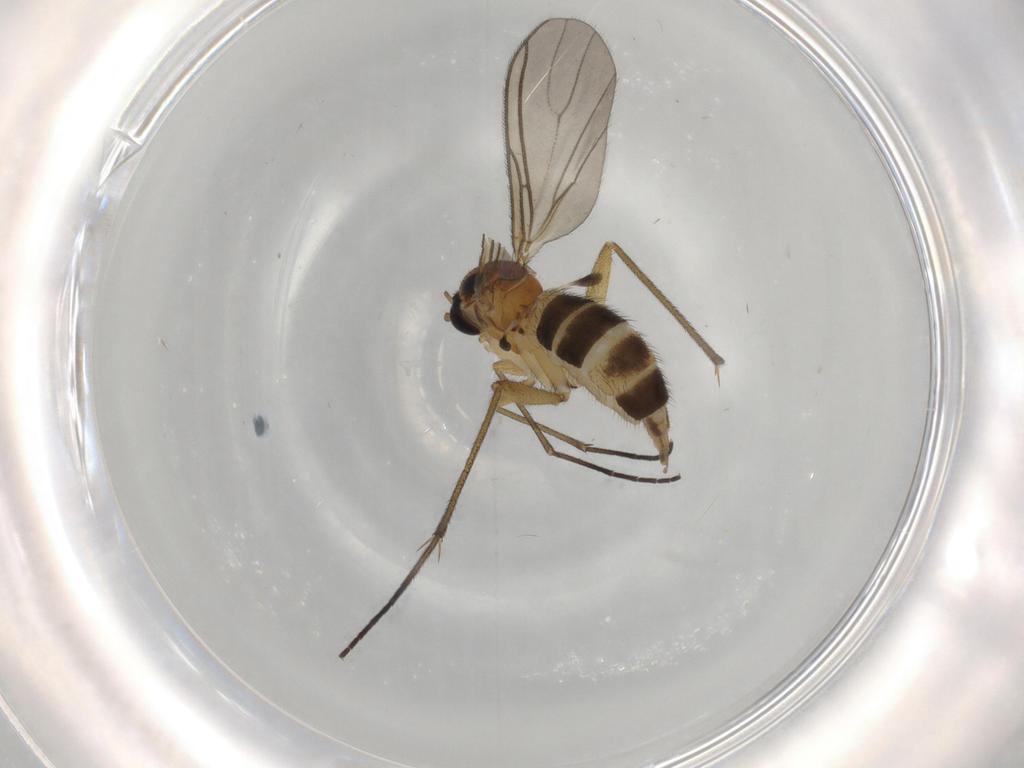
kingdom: Animalia
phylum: Arthropoda
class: Insecta
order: Diptera
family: Sciaridae
